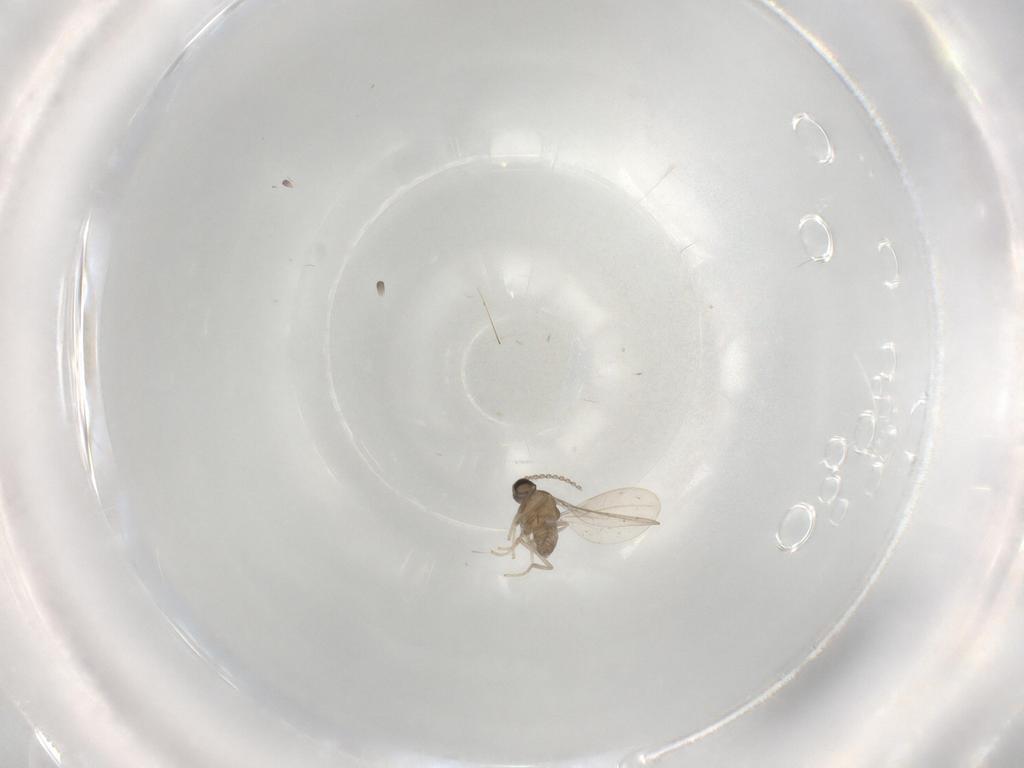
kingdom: Animalia
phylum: Arthropoda
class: Insecta
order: Diptera
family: Cecidomyiidae
